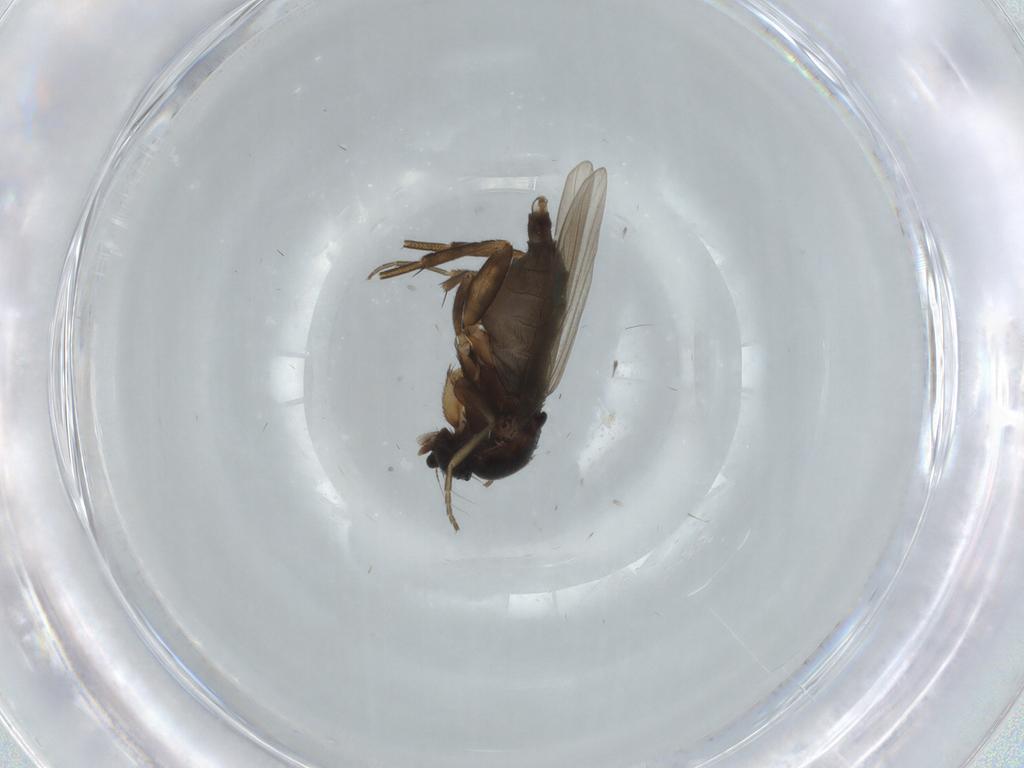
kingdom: Animalia
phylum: Arthropoda
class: Insecta
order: Diptera
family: Phoridae
